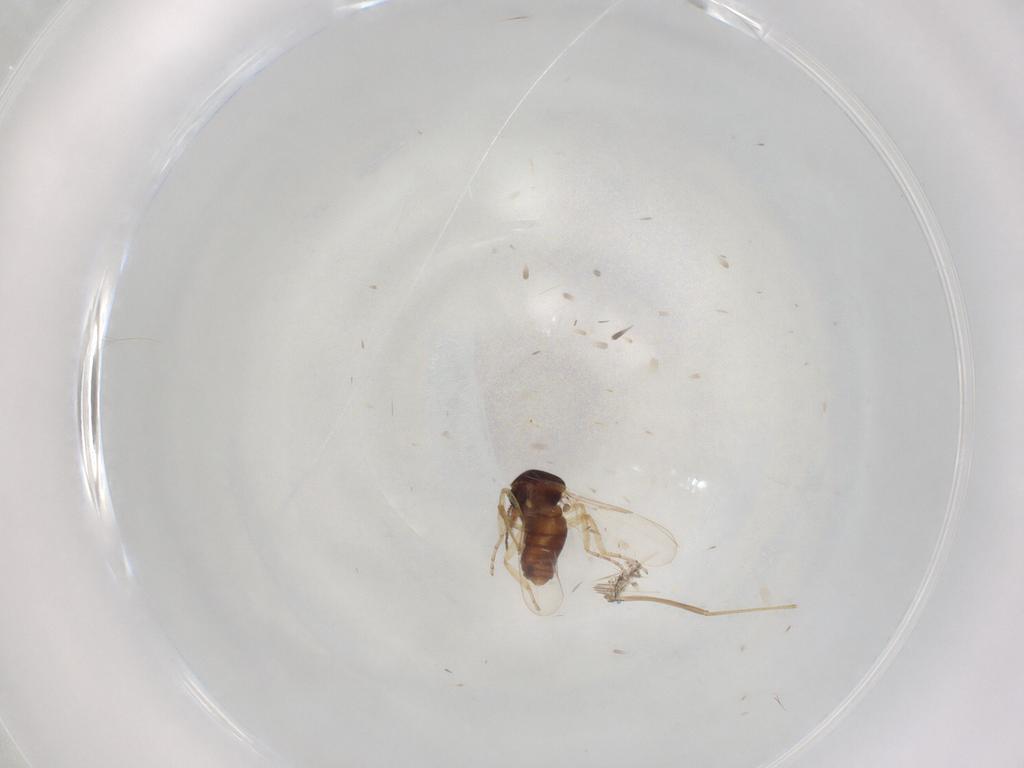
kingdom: Animalia
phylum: Arthropoda
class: Insecta
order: Diptera
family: Ceratopogonidae
